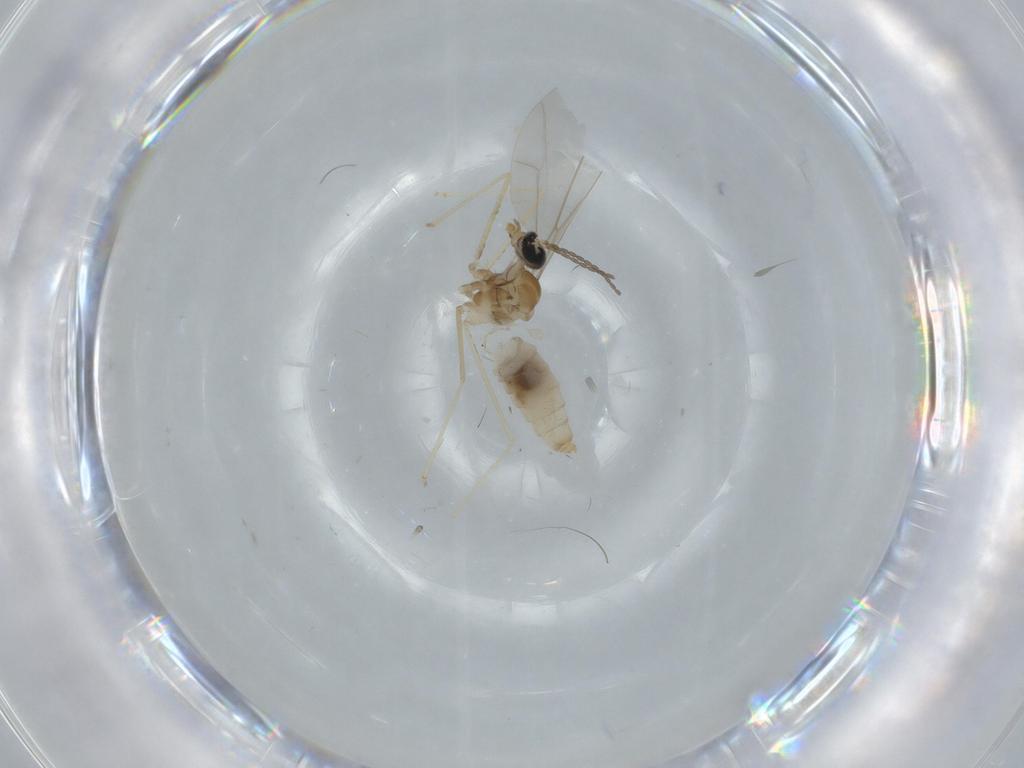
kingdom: Animalia
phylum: Arthropoda
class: Insecta
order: Diptera
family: Cecidomyiidae
